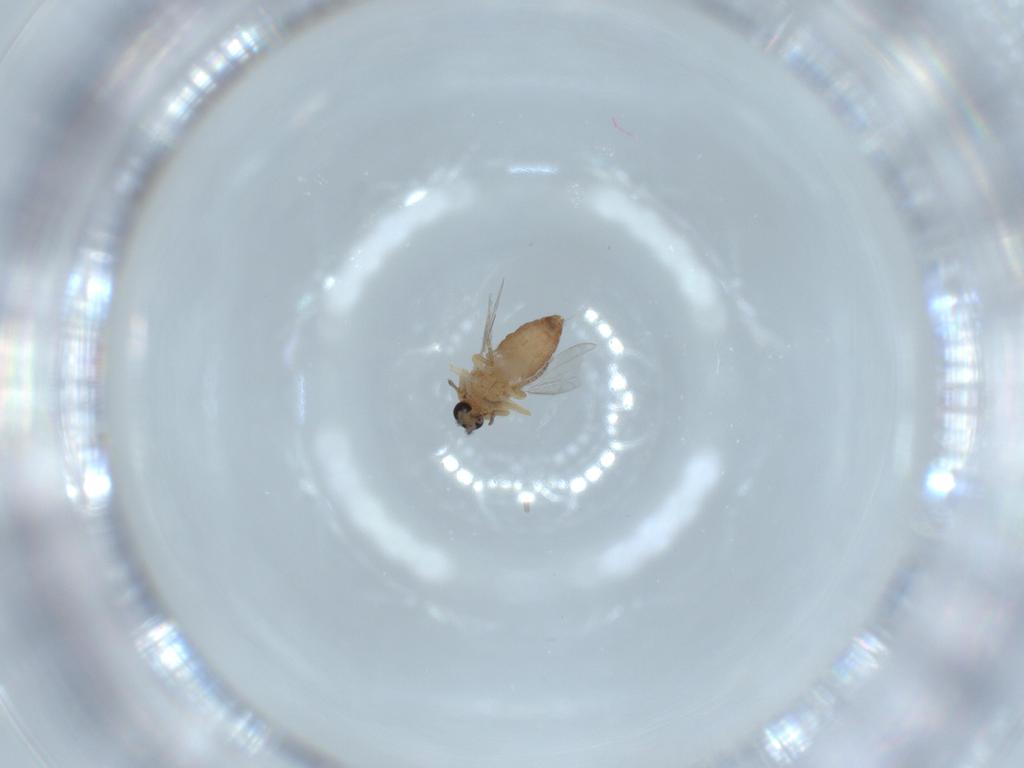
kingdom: Animalia
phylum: Arthropoda
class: Insecta
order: Diptera
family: Ceratopogonidae
